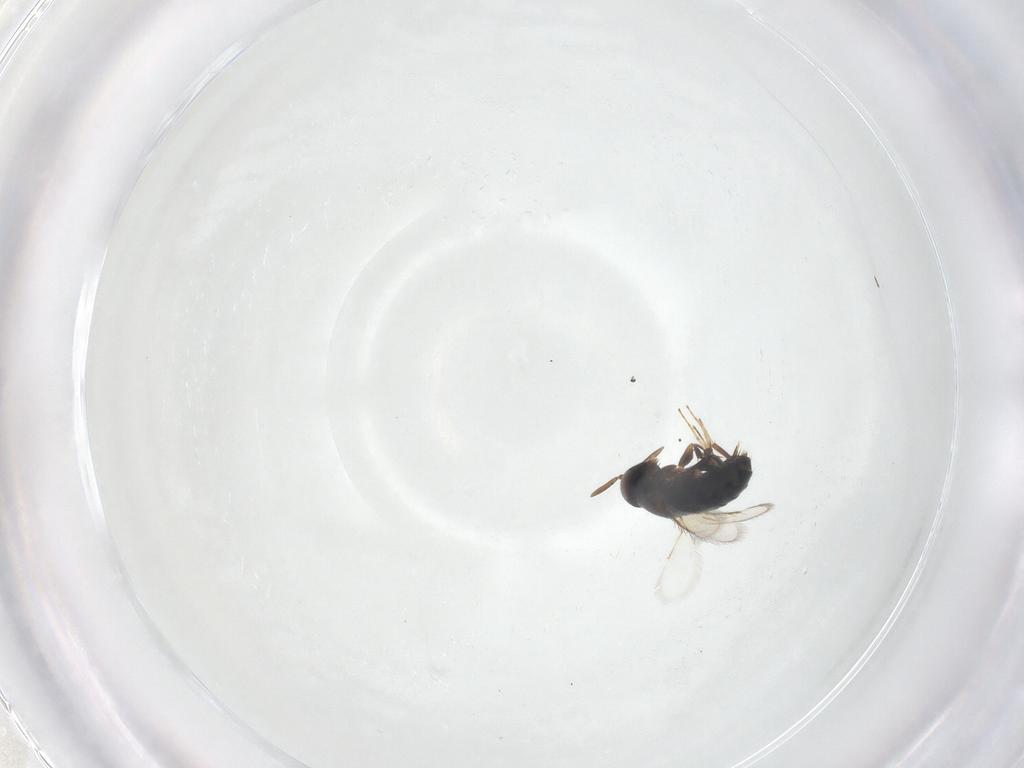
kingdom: Animalia
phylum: Arthropoda
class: Insecta
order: Hymenoptera
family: Signiphoridae
